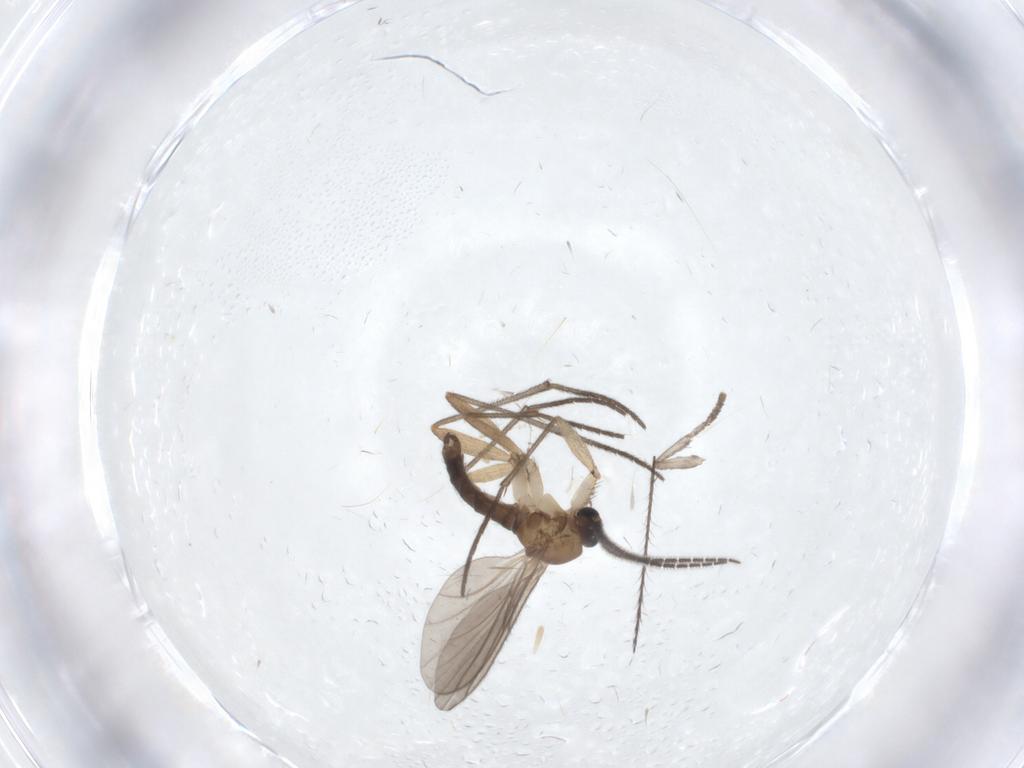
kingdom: Animalia
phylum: Arthropoda
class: Insecta
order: Diptera
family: Sciaridae
